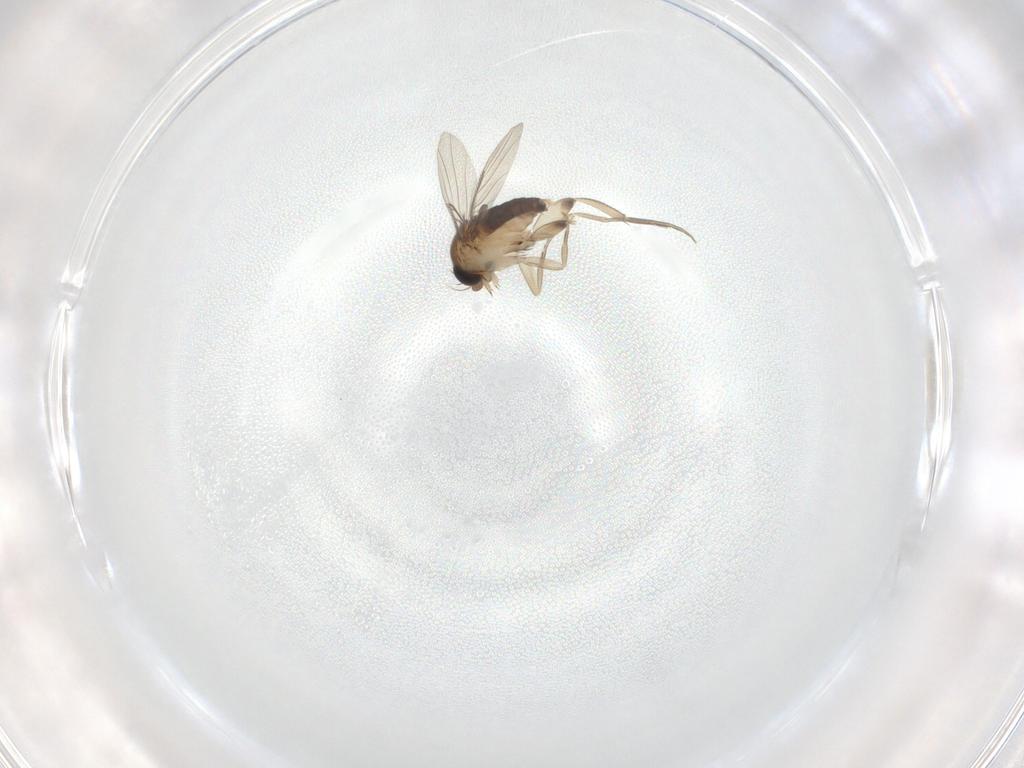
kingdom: Animalia
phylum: Arthropoda
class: Insecta
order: Diptera
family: Phoridae
